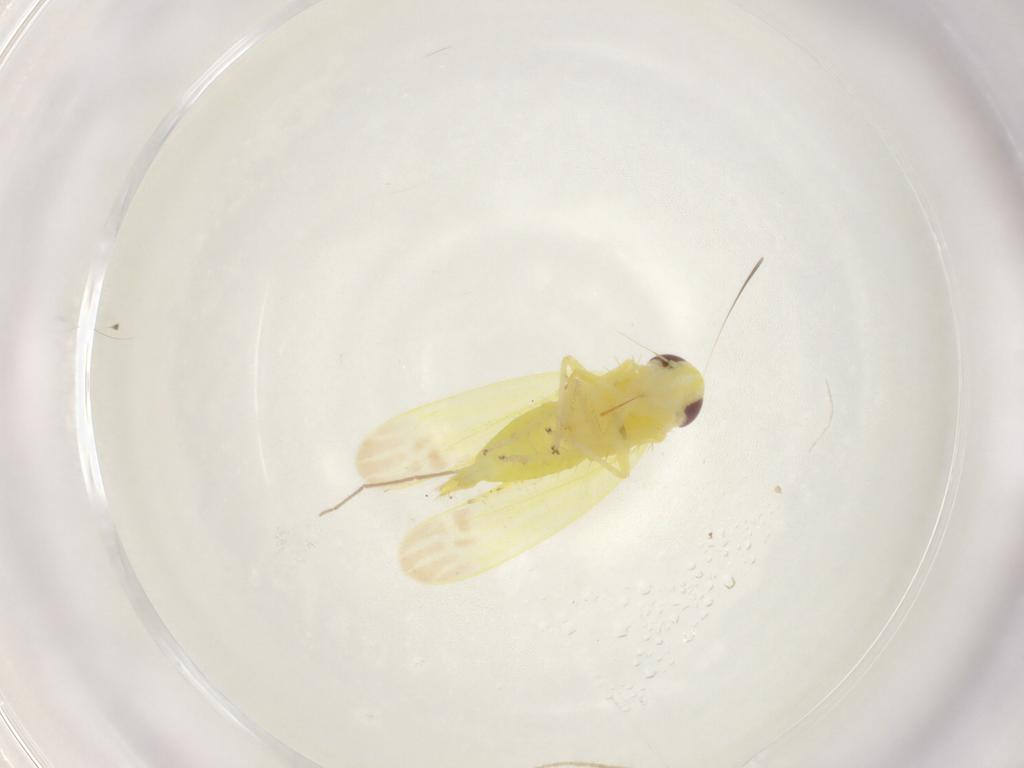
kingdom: Animalia
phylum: Arthropoda
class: Insecta
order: Hemiptera
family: Cicadellidae
